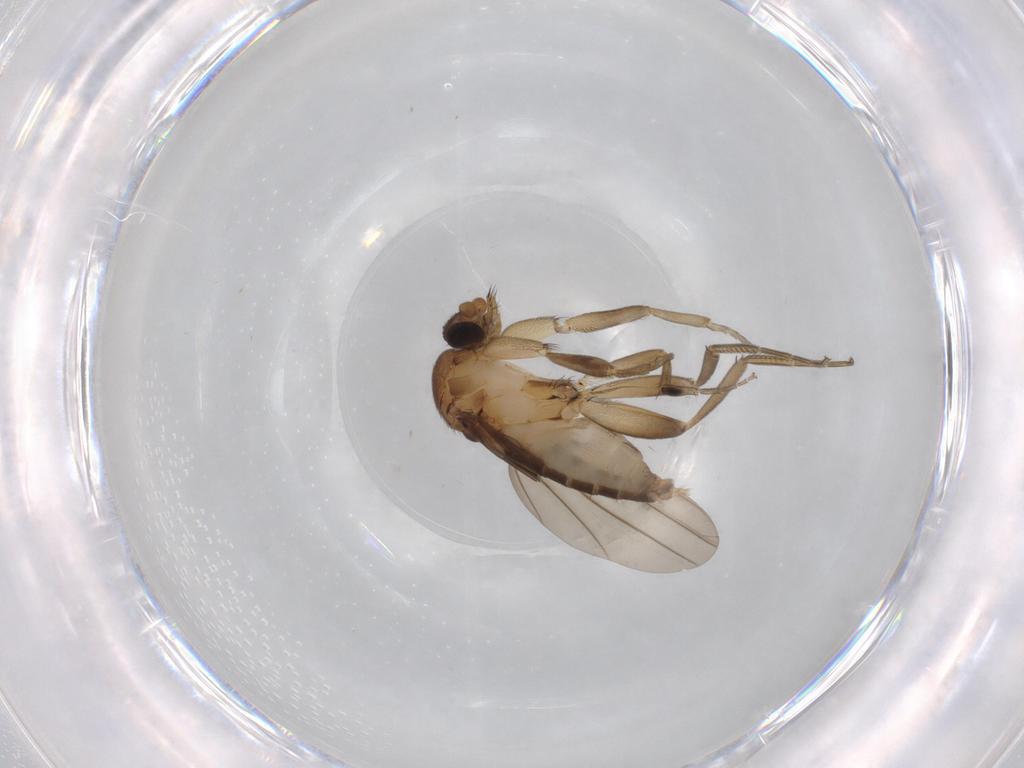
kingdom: Animalia
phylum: Arthropoda
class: Insecta
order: Diptera
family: Phoridae
